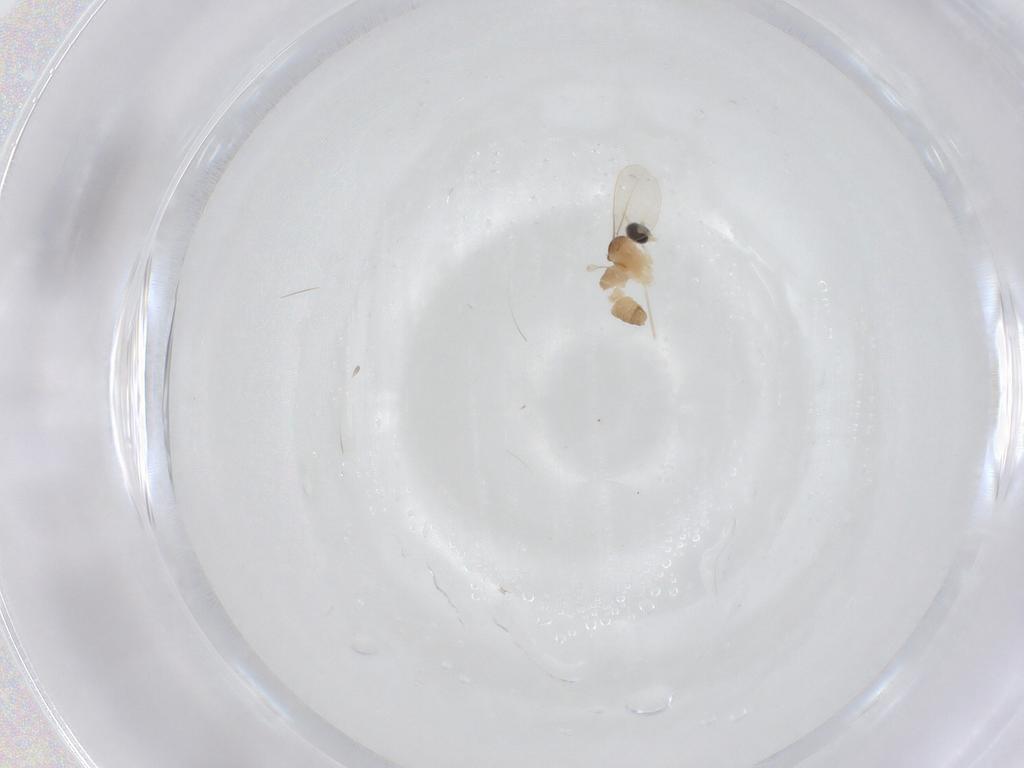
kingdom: Animalia
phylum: Arthropoda
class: Insecta
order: Diptera
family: Cecidomyiidae
